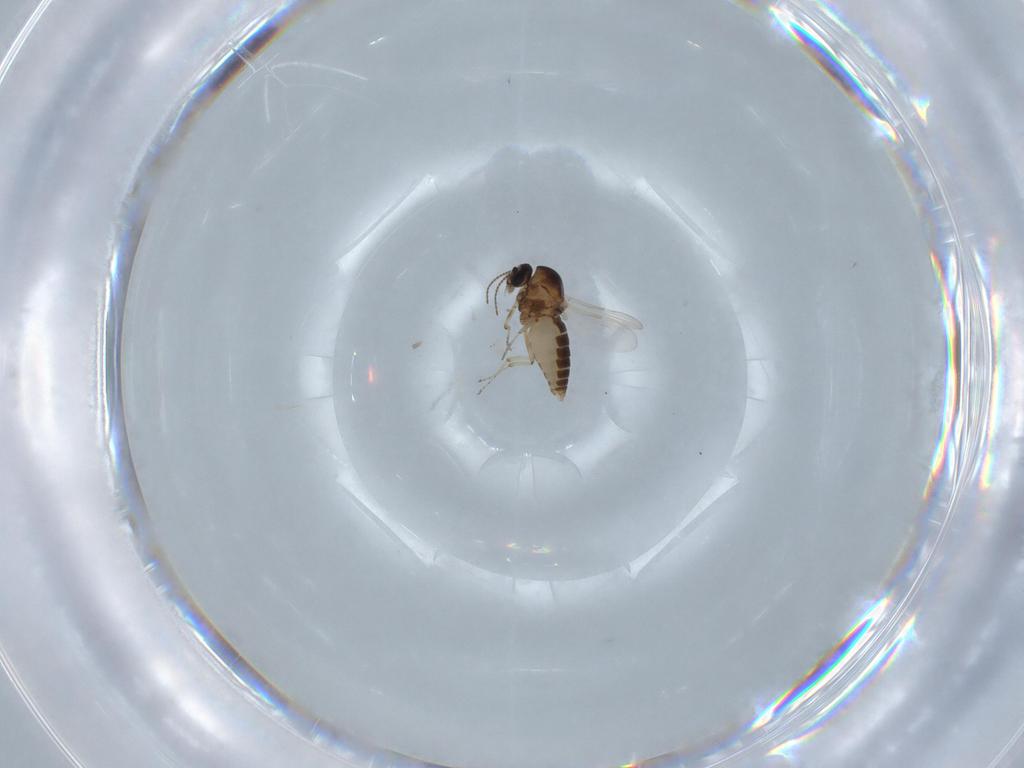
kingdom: Animalia
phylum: Arthropoda
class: Insecta
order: Diptera
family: Ceratopogonidae
